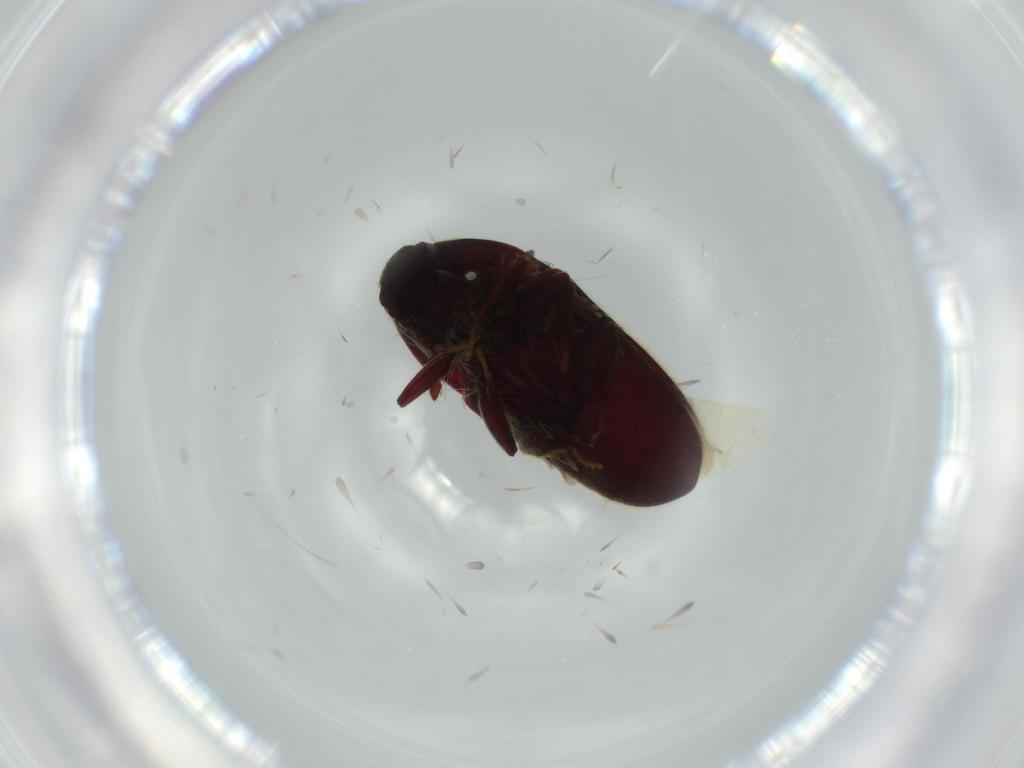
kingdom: Animalia
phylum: Arthropoda
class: Insecta
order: Coleoptera
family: Throscidae
